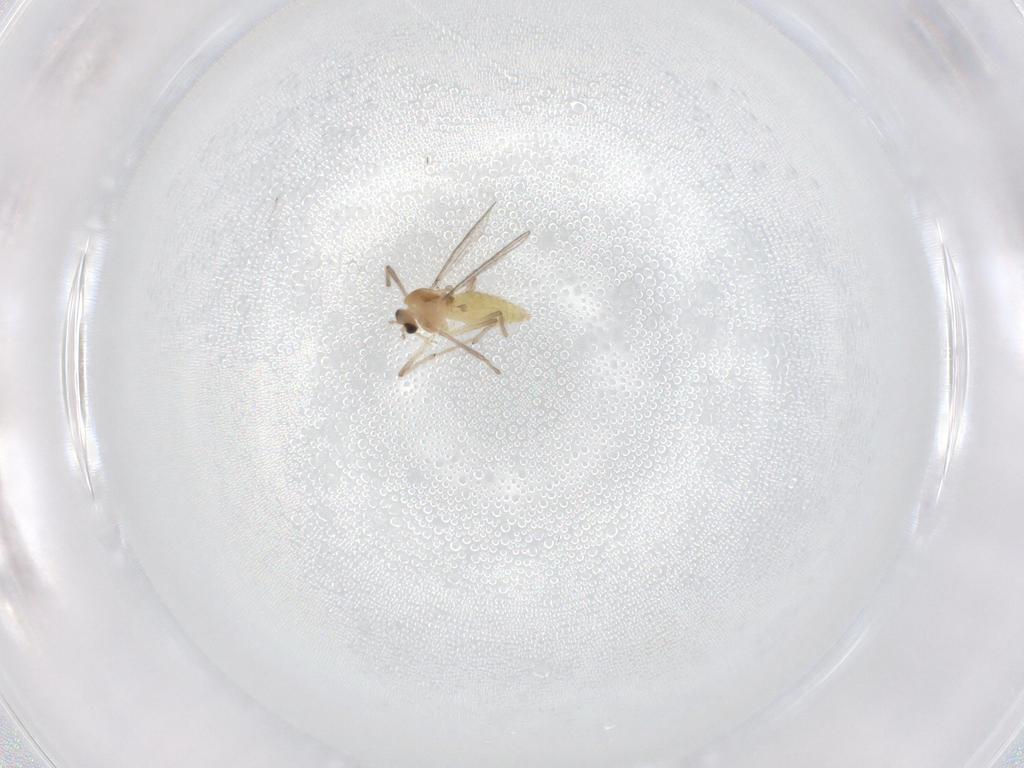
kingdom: Animalia
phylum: Arthropoda
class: Insecta
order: Diptera
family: Chironomidae
